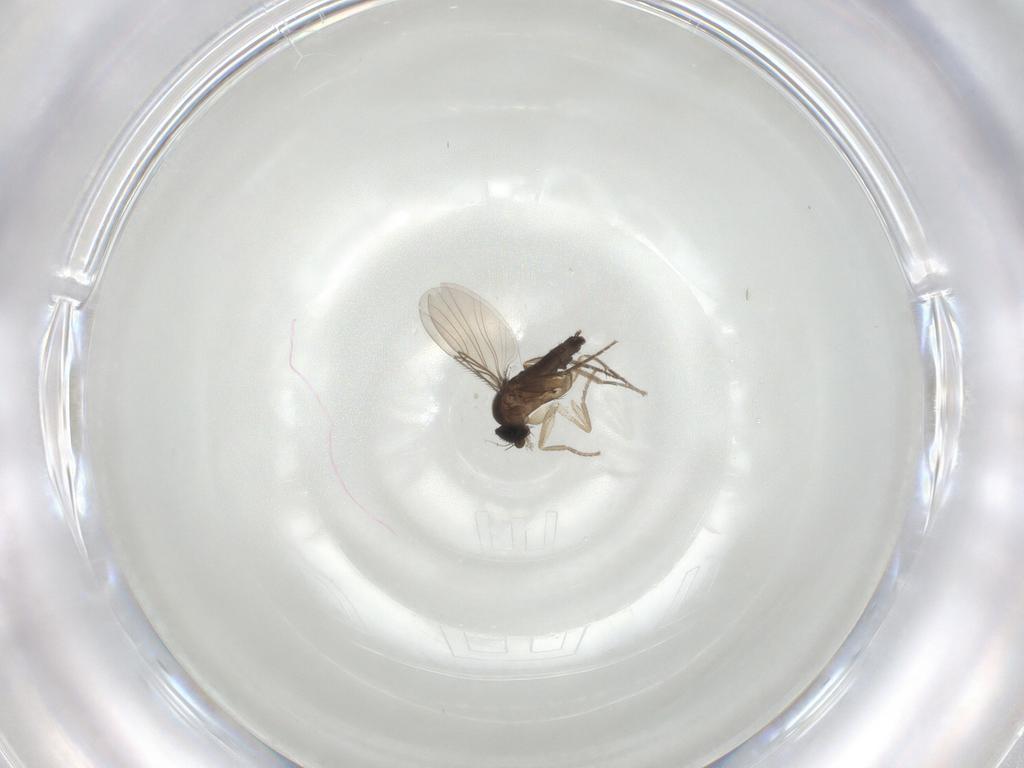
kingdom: Animalia
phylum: Arthropoda
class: Insecta
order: Diptera
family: Phoridae
